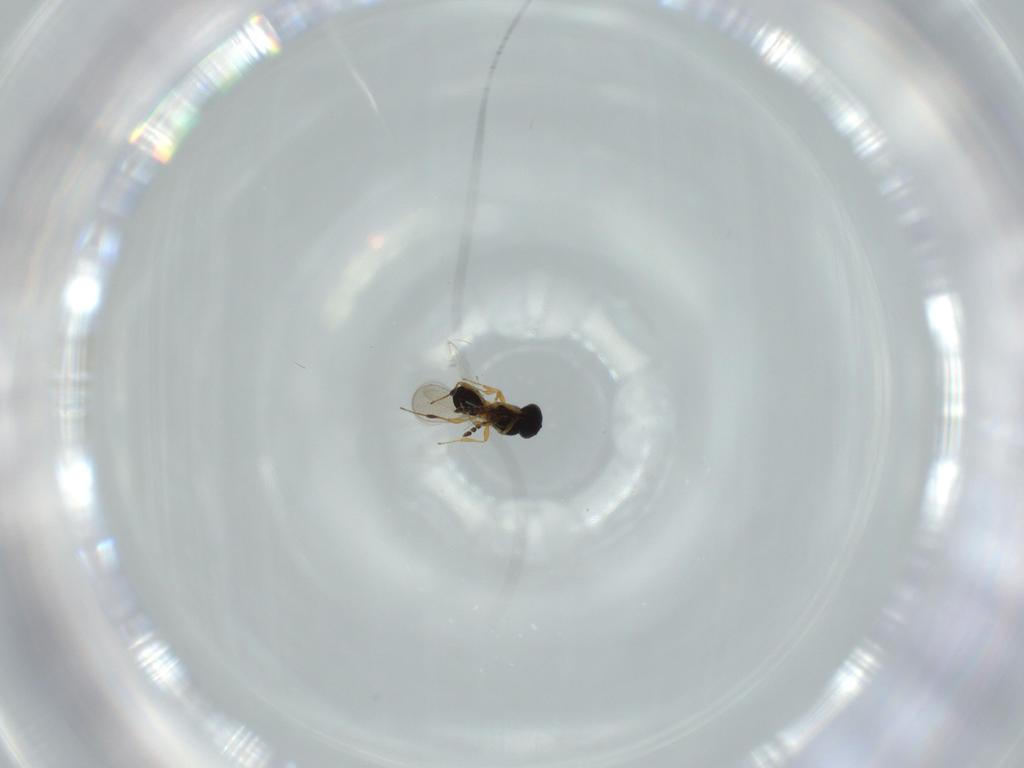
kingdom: Animalia
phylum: Arthropoda
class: Insecta
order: Hymenoptera
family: Platygastridae
